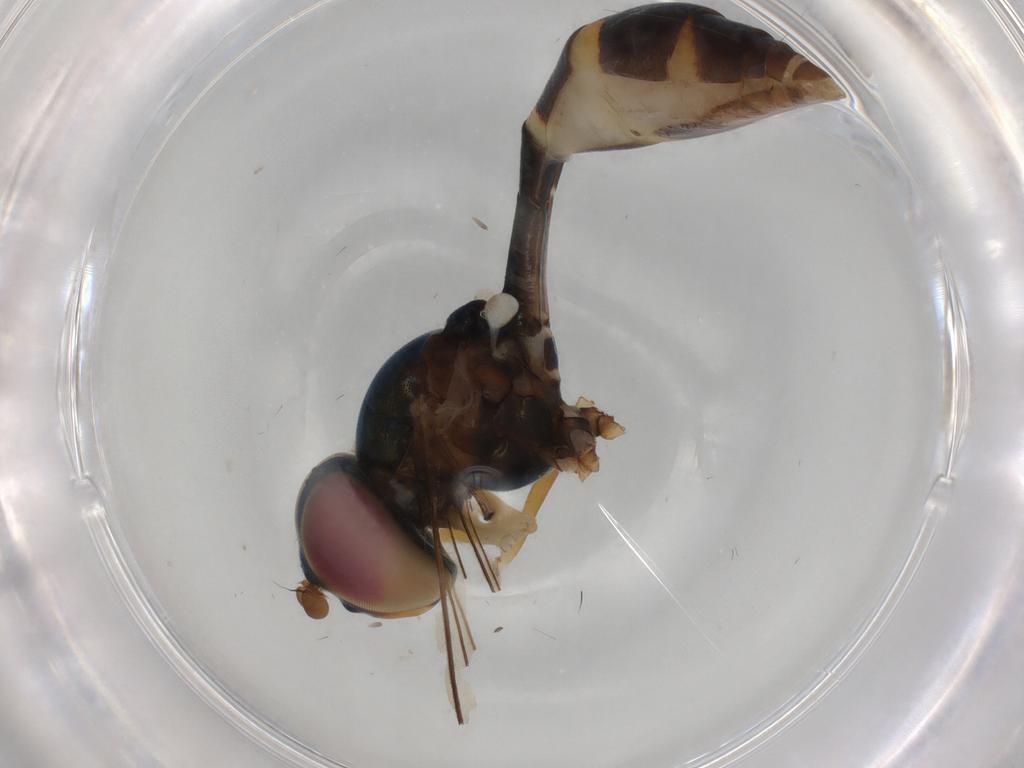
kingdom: Animalia
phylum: Arthropoda
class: Insecta
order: Diptera
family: Syrphidae
